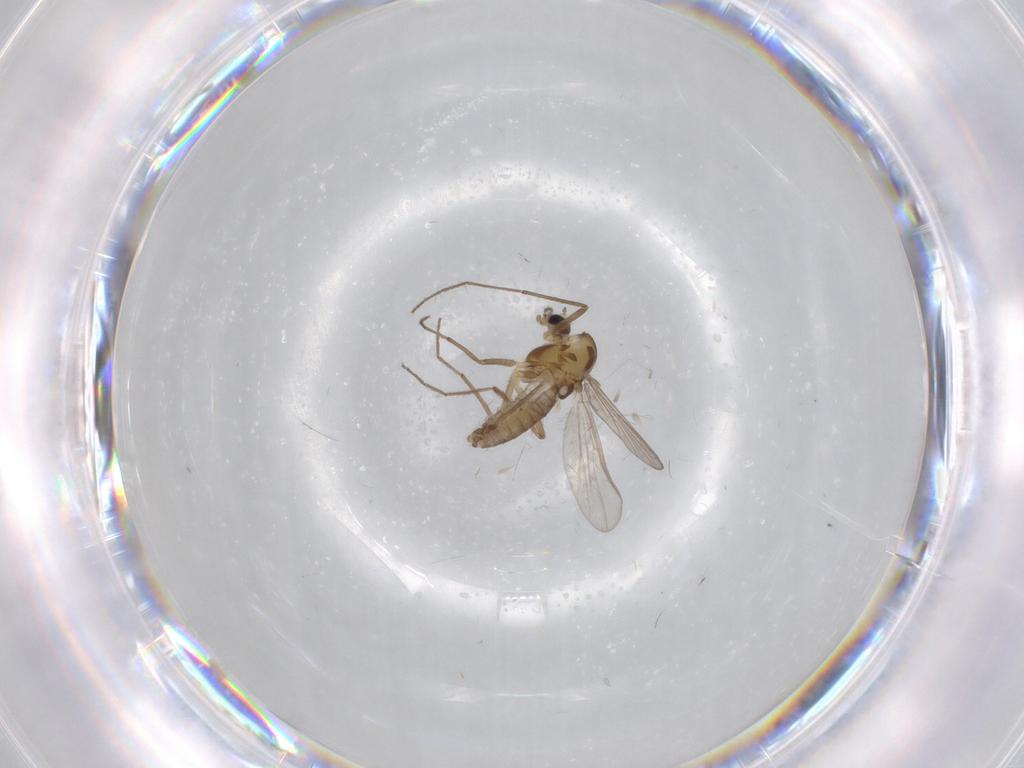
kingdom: Animalia
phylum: Arthropoda
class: Insecta
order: Diptera
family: Chironomidae
